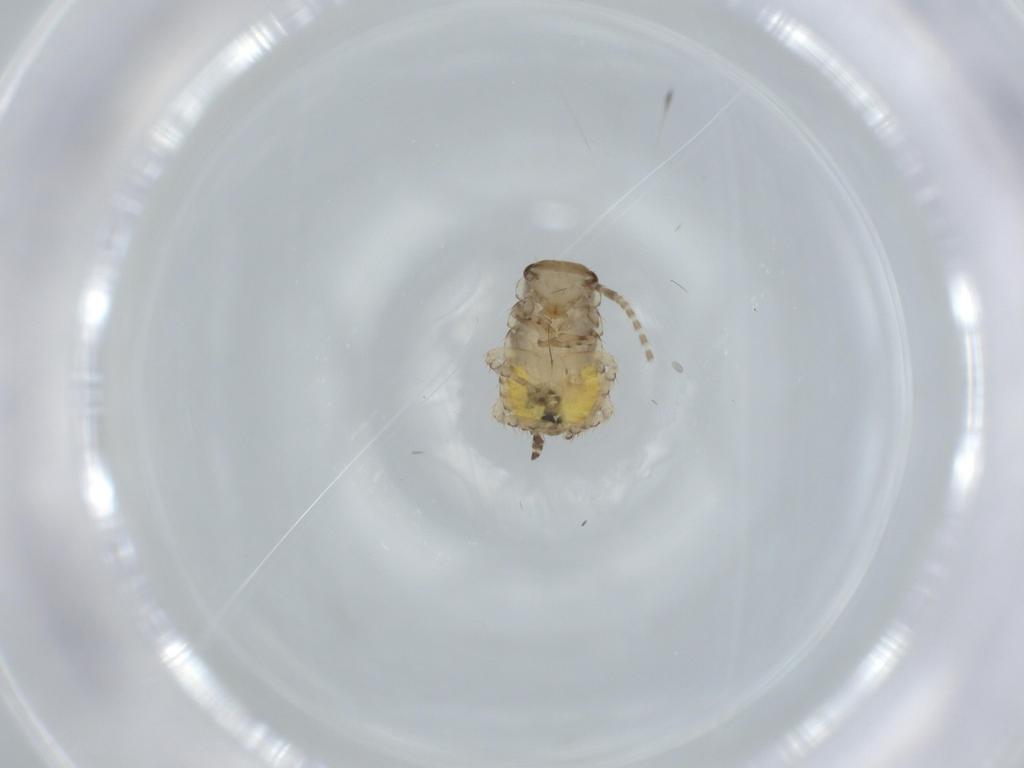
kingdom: Animalia
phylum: Arthropoda
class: Insecta
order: Blattodea
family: Ectobiidae
